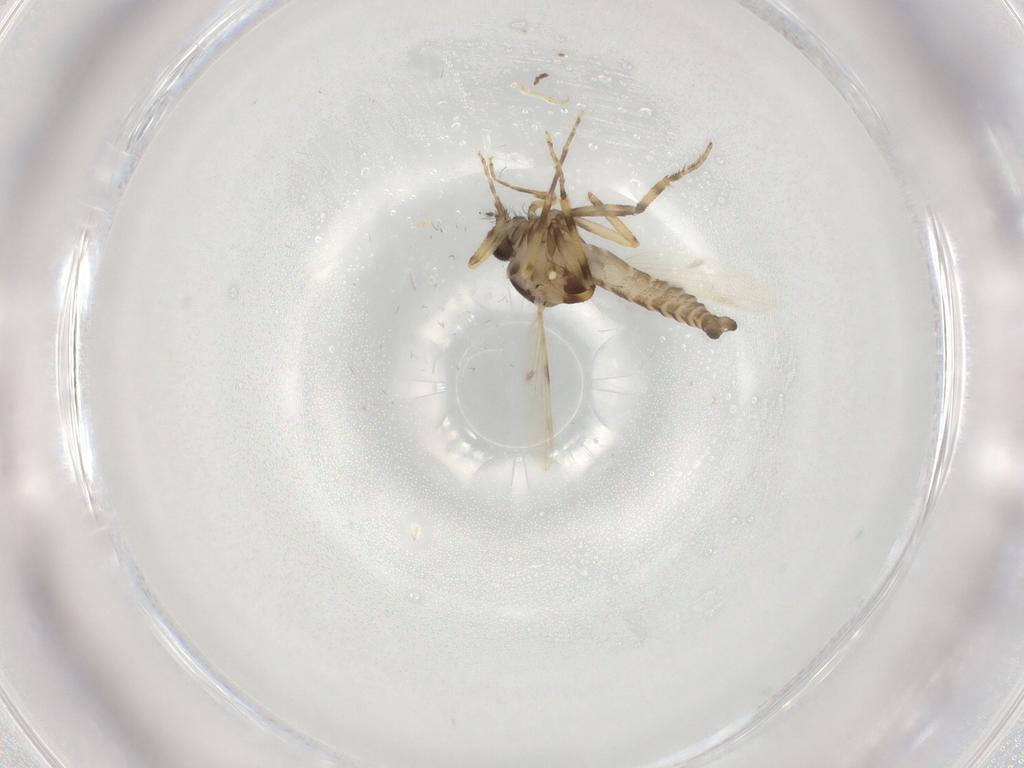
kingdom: Animalia
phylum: Arthropoda
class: Insecta
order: Diptera
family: Ceratopogonidae
